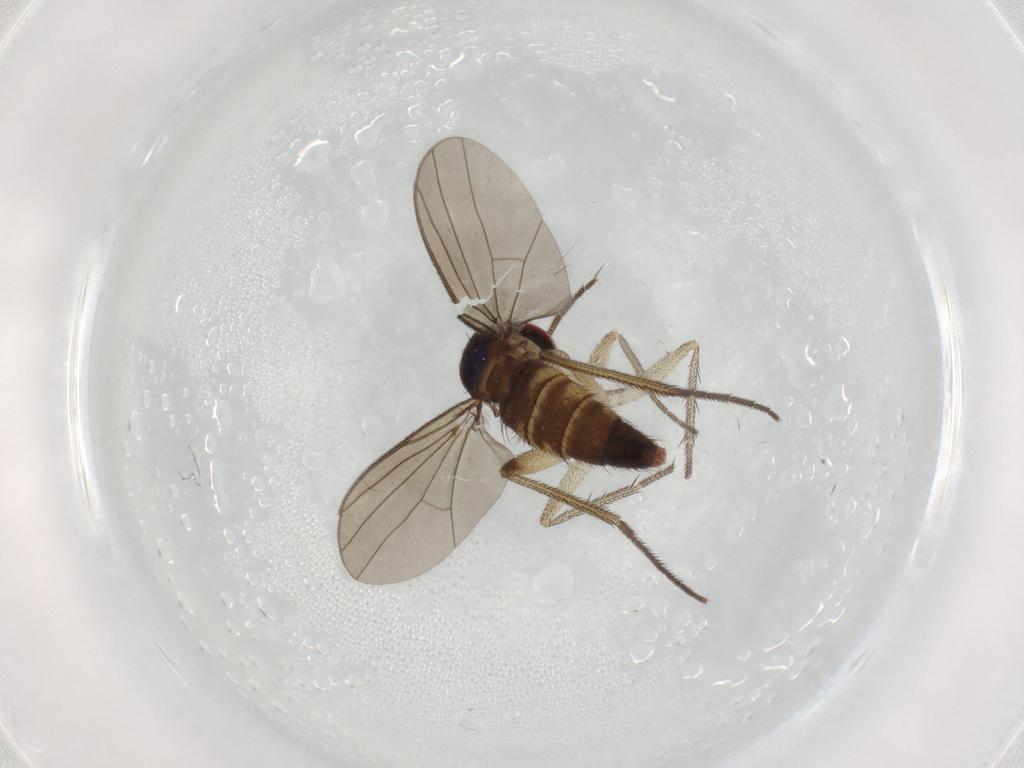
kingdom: Animalia
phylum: Arthropoda
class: Insecta
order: Diptera
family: Dolichopodidae
